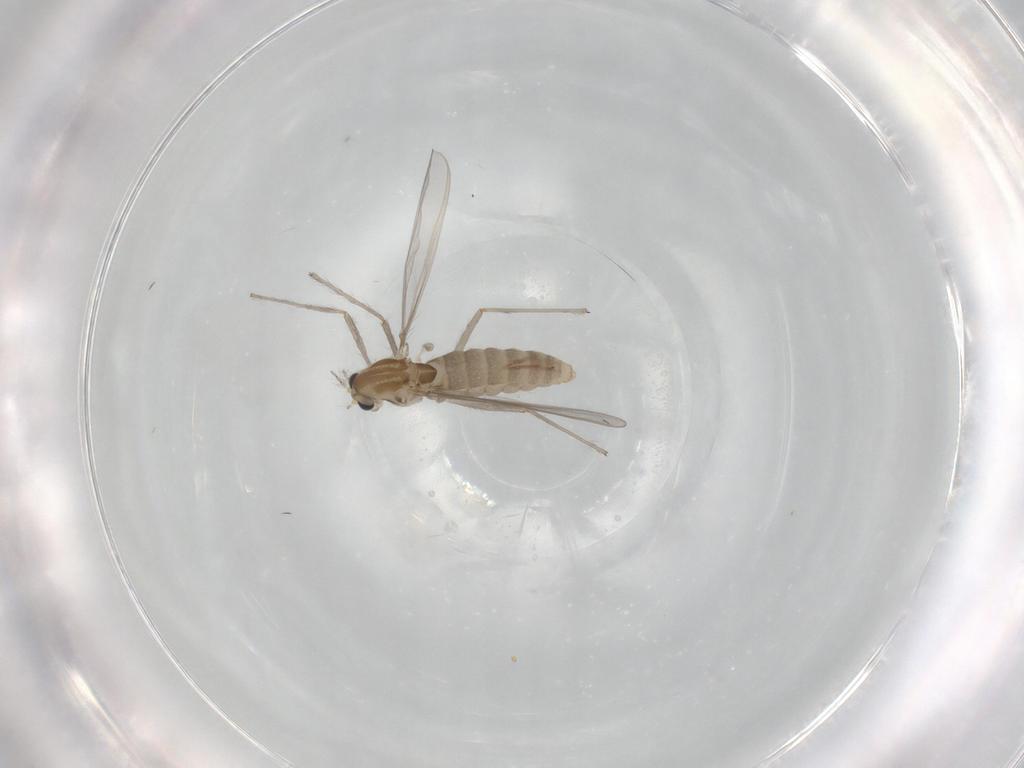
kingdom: Animalia
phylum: Arthropoda
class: Insecta
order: Diptera
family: Chironomidae
